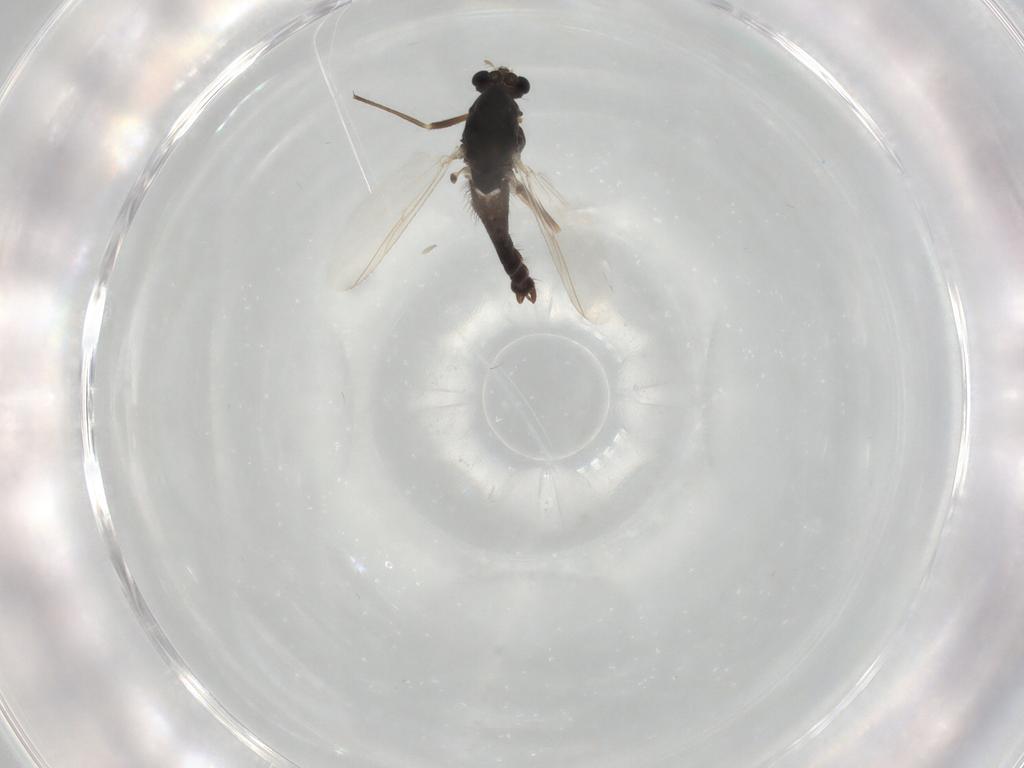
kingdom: Animalia
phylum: Arthropoda
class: Insecta
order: Diptera
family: Chironomidae
